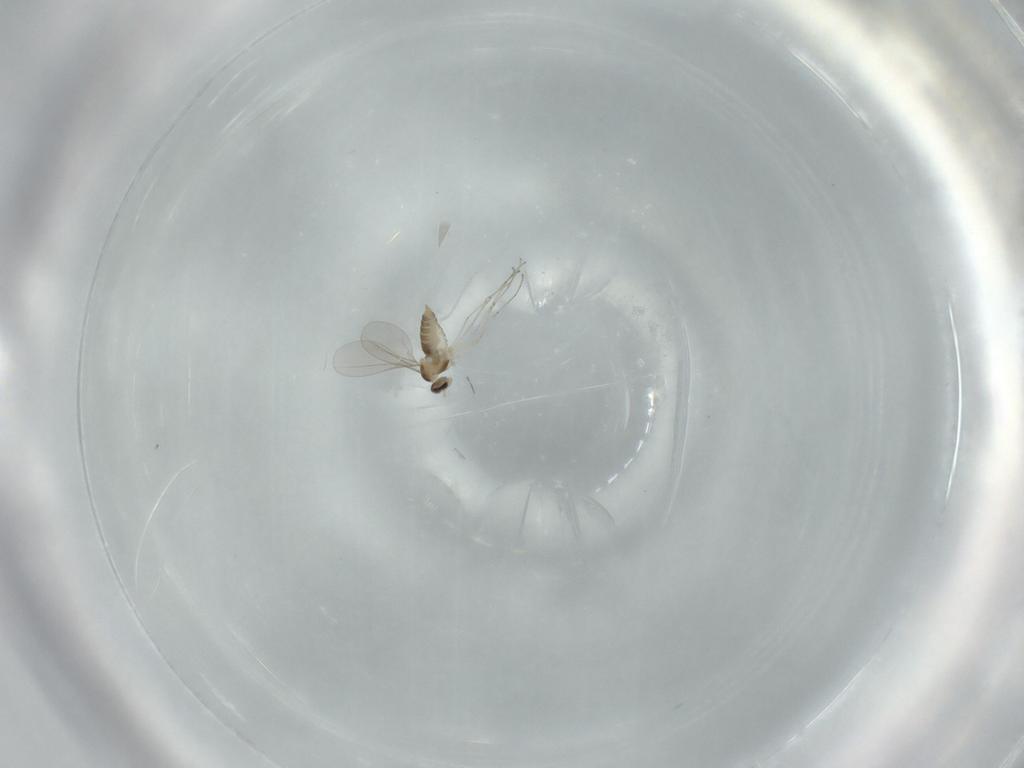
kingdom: Animalia
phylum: Arthropoda
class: Insecta
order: Diptera
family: Cecidomyiidae
